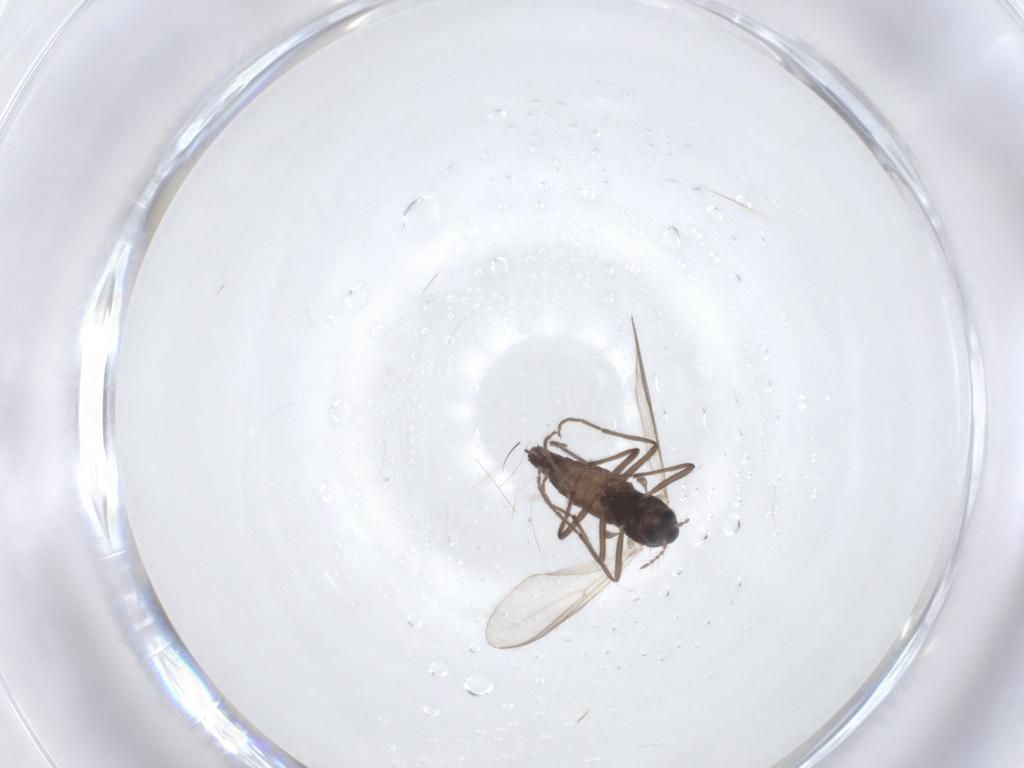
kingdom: Animalia
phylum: Arthropoda
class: Insecta
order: Diptera
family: Chironomidae
